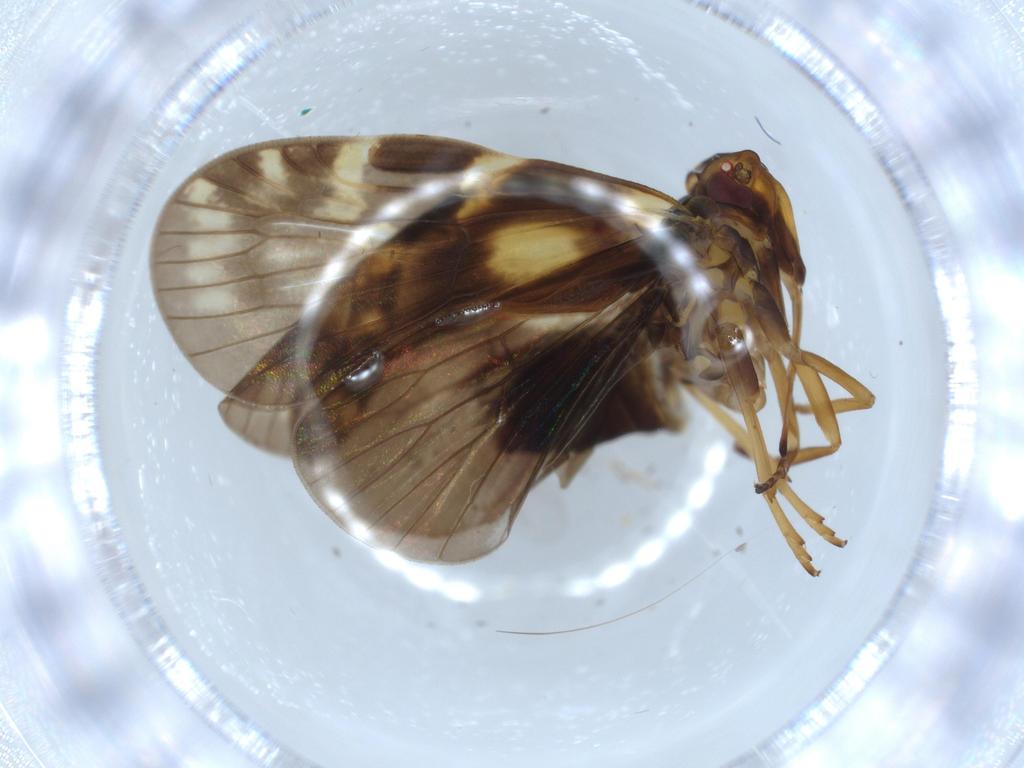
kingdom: Animalia
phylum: Arthropoda
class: Insecta
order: Hemiptera
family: Cixiidae
